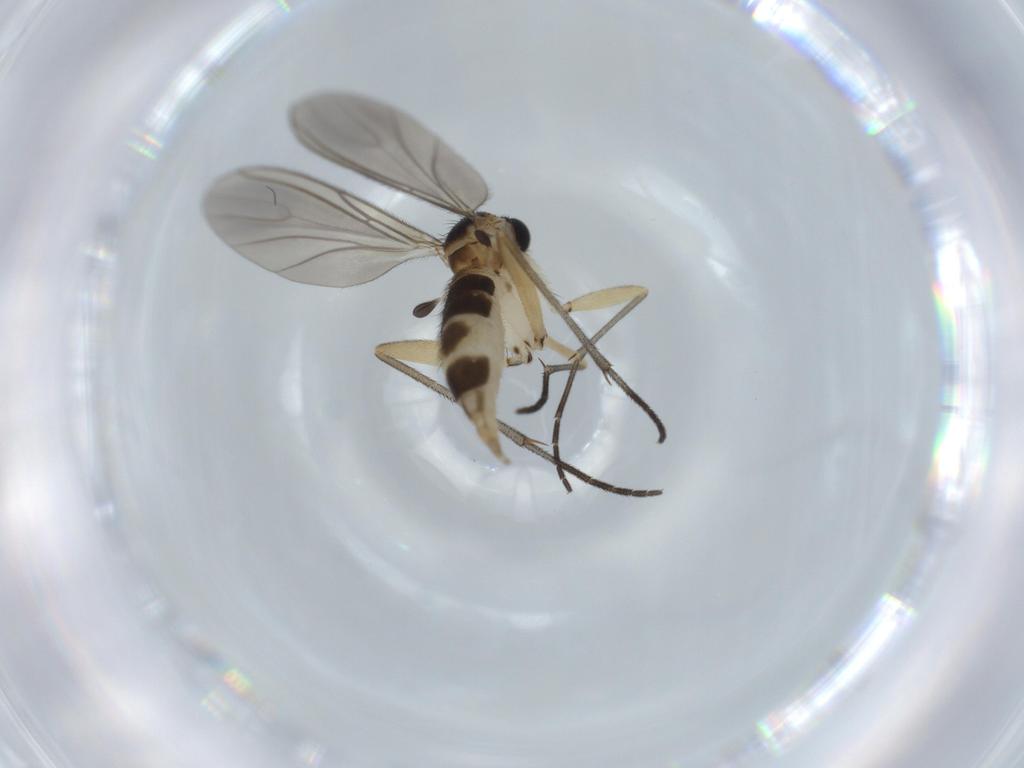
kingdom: Animalia
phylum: Arthropoda
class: Insecta
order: Diptera
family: Sciaridae
